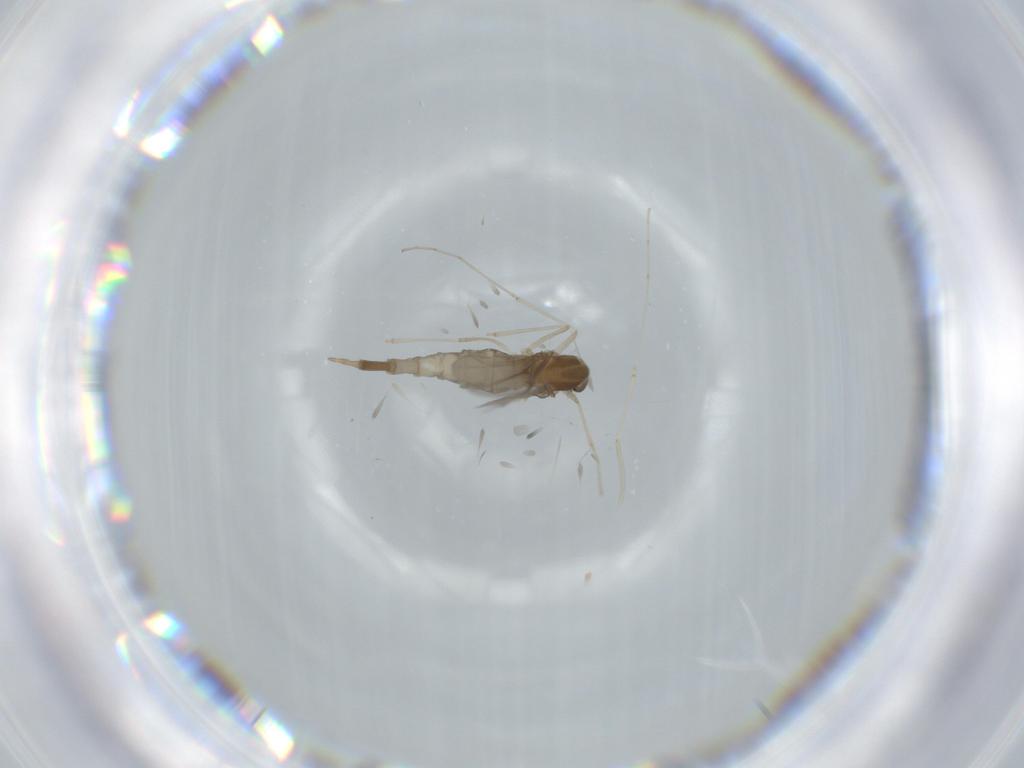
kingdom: Animalia
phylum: Arthropoda
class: Insecta
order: Diptera
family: Cecidomyiidae
